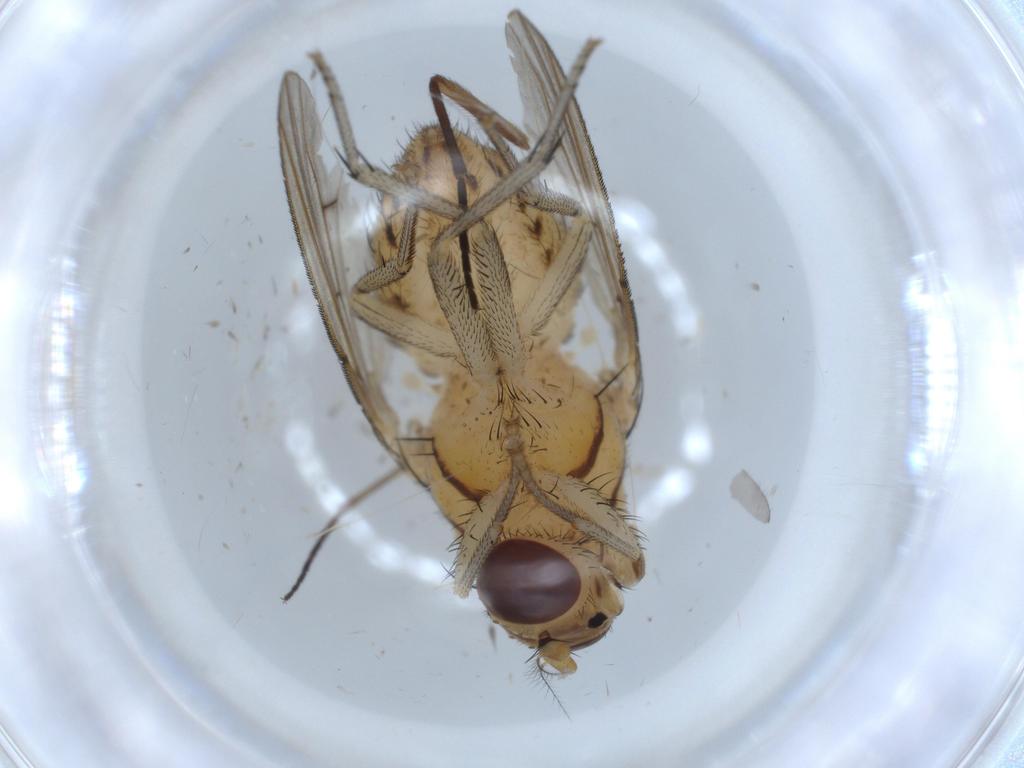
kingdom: Animalia
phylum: Arthropoda
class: Insecta
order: Diptera
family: Lauxaniidae
